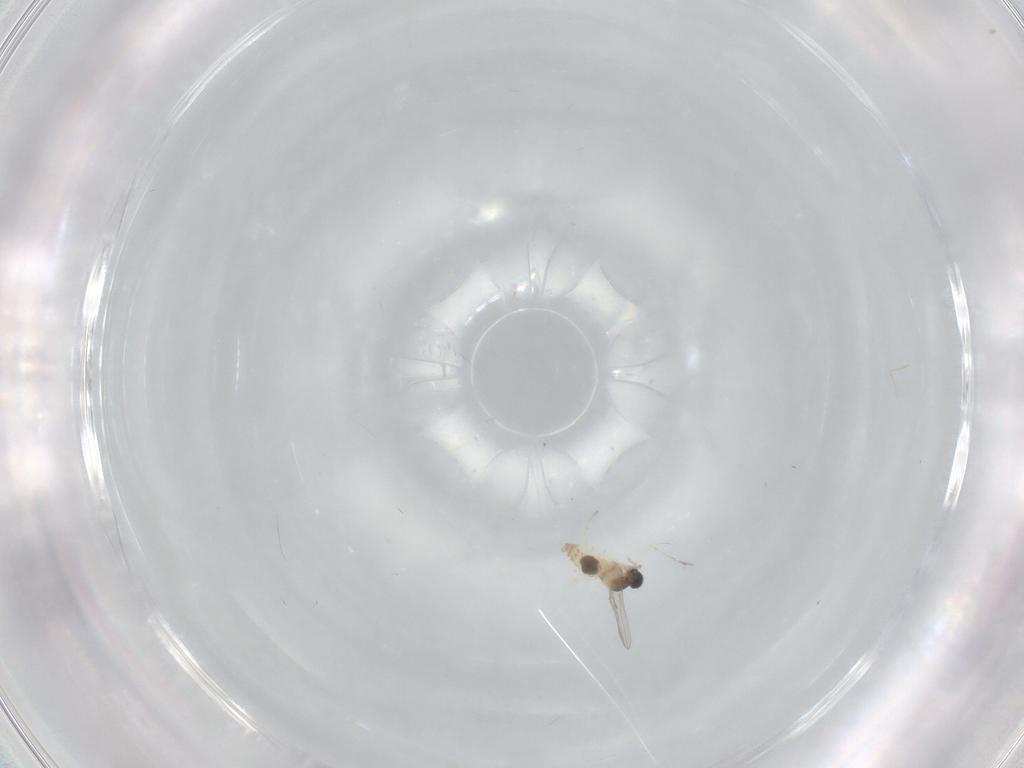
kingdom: Animalia
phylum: Arthropoda
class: Insecta
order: Diptera
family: Cecidomyiidae
